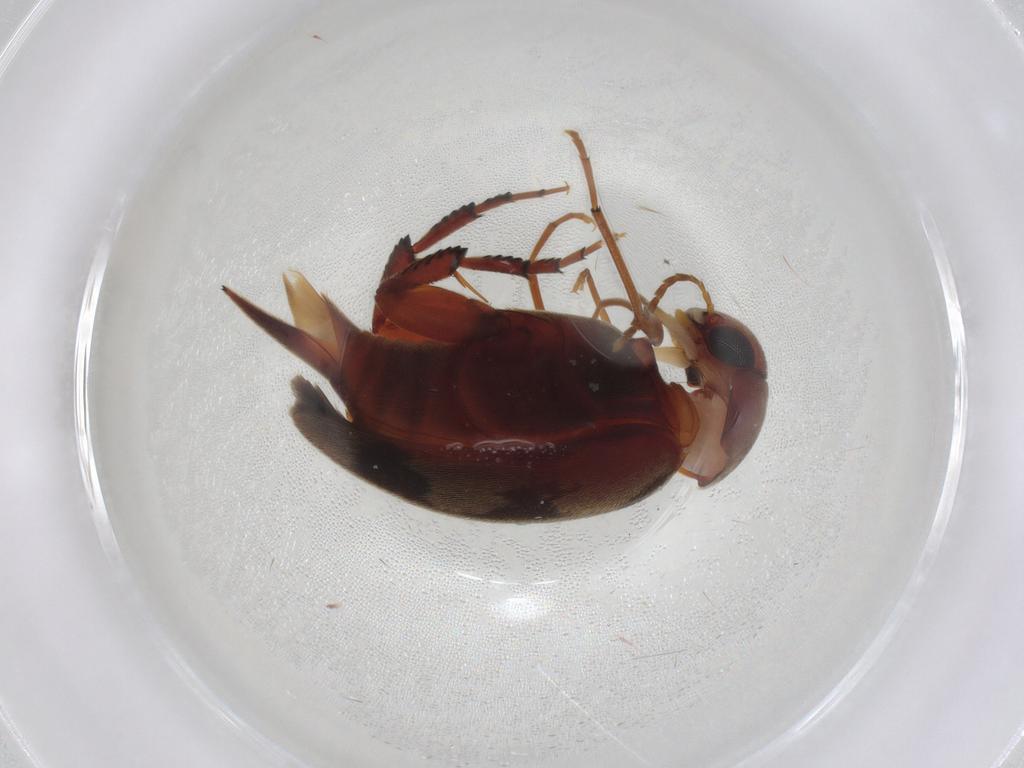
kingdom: Animalia
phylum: Arthropoda
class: Insecta
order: Coleoptera
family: Mordellidae
